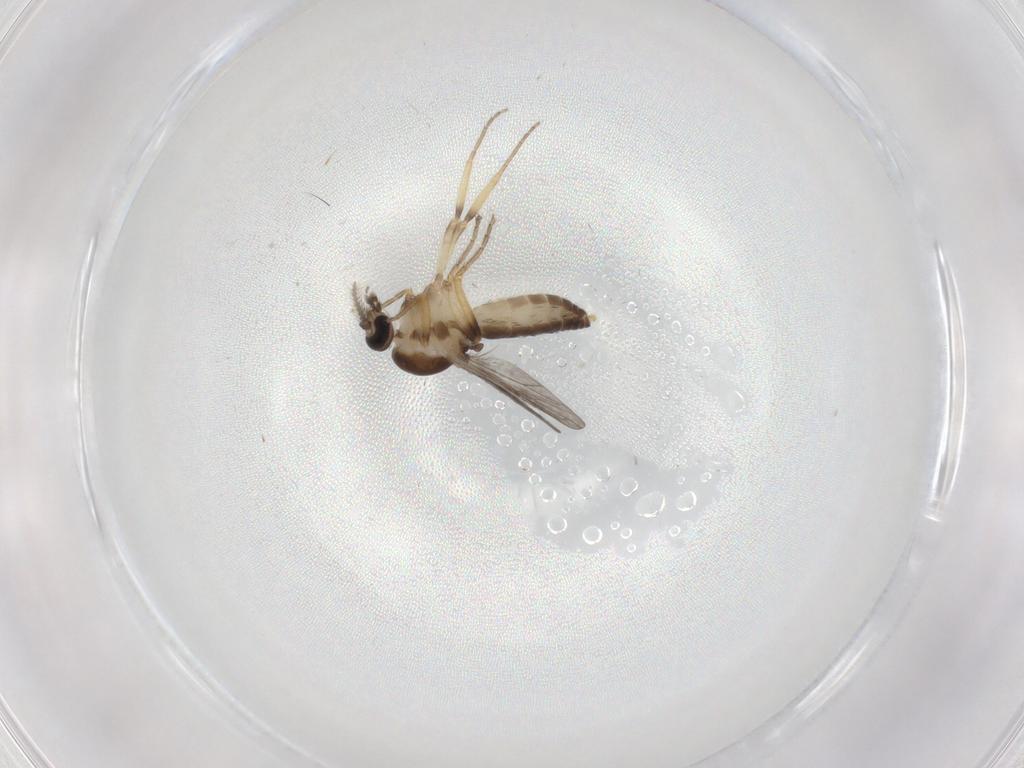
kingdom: Animalia
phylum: Arthropoda
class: Insecta
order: Diptera
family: Ceratopogonidae
